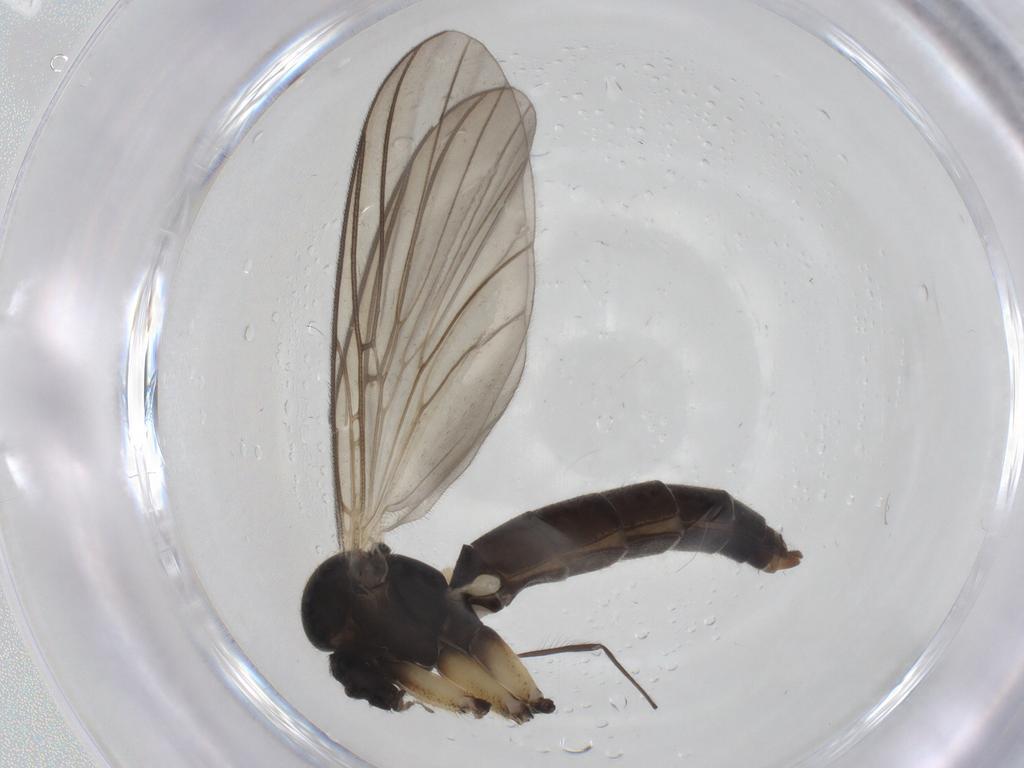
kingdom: Animalia
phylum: Arthropoda
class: Insecta
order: Diptera
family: Mycetophilidae
